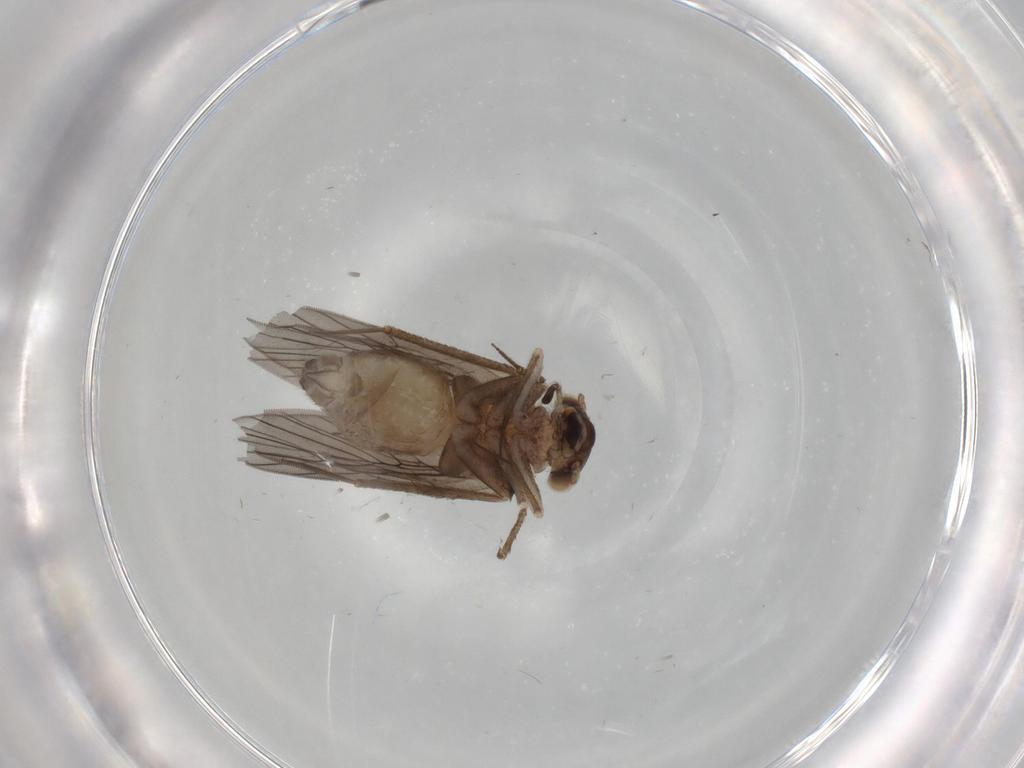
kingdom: Animalia
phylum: Arthropoda
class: Insecta
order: Psocodea
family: Lepidopsocidae
